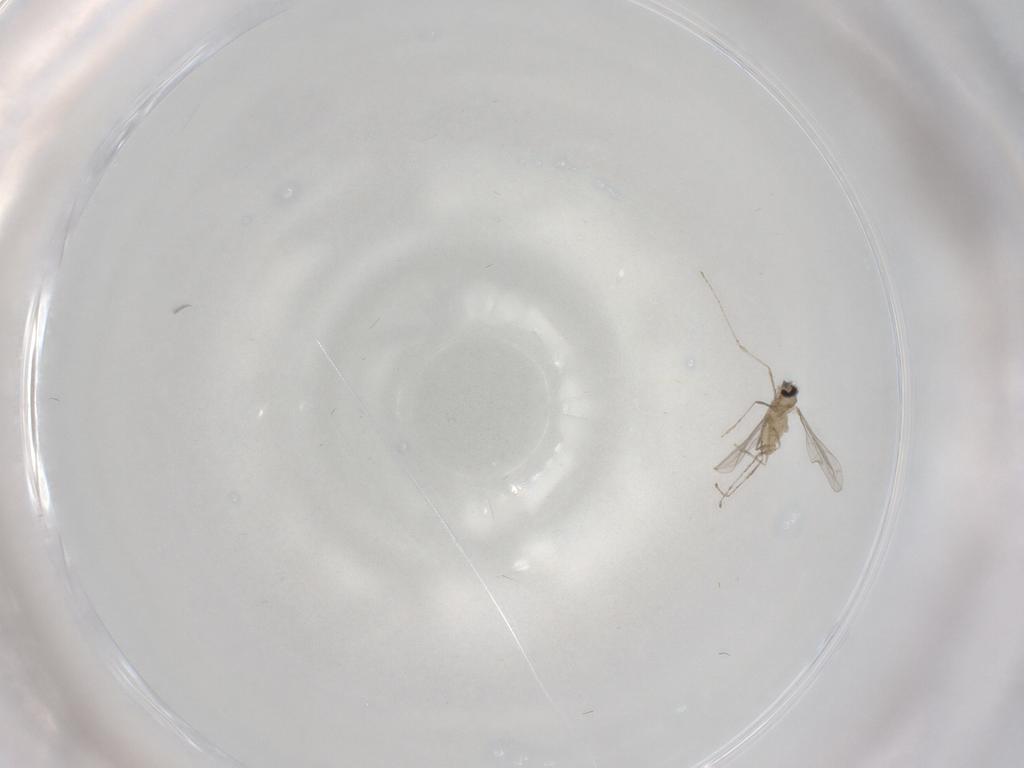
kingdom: Animalia
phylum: Arthropoda
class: Insecta
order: Diptera
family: Cecidomyiidae
